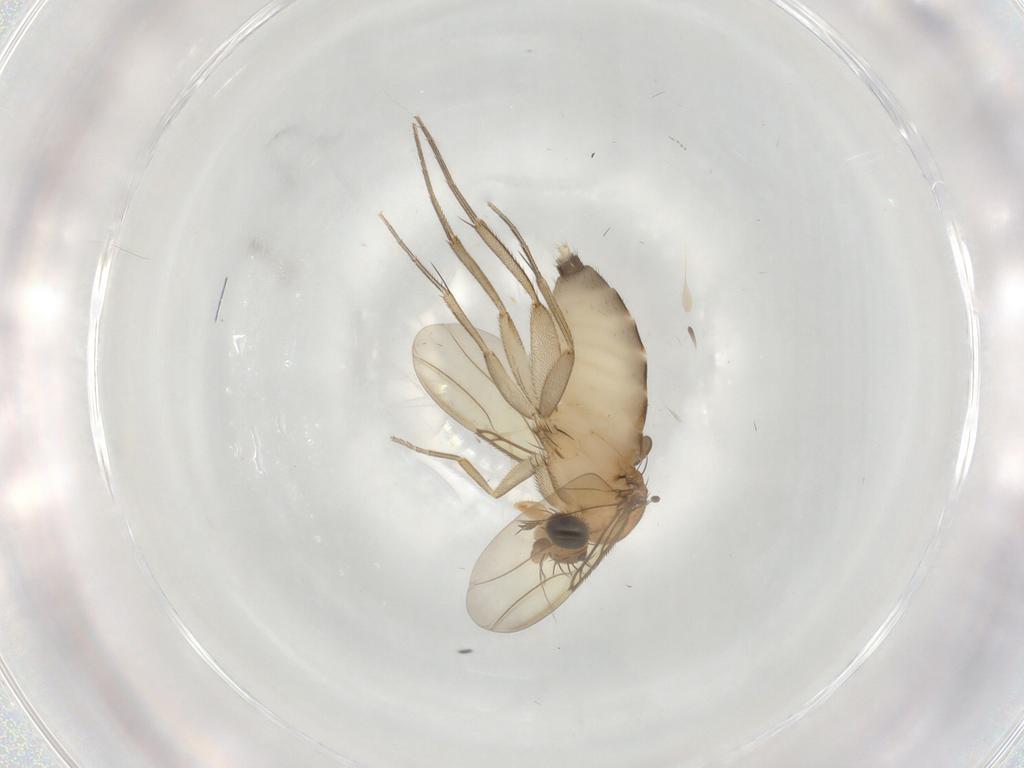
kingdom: Animalia
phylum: Arthropoda
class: Insecta
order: Diptera
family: Phoridae
